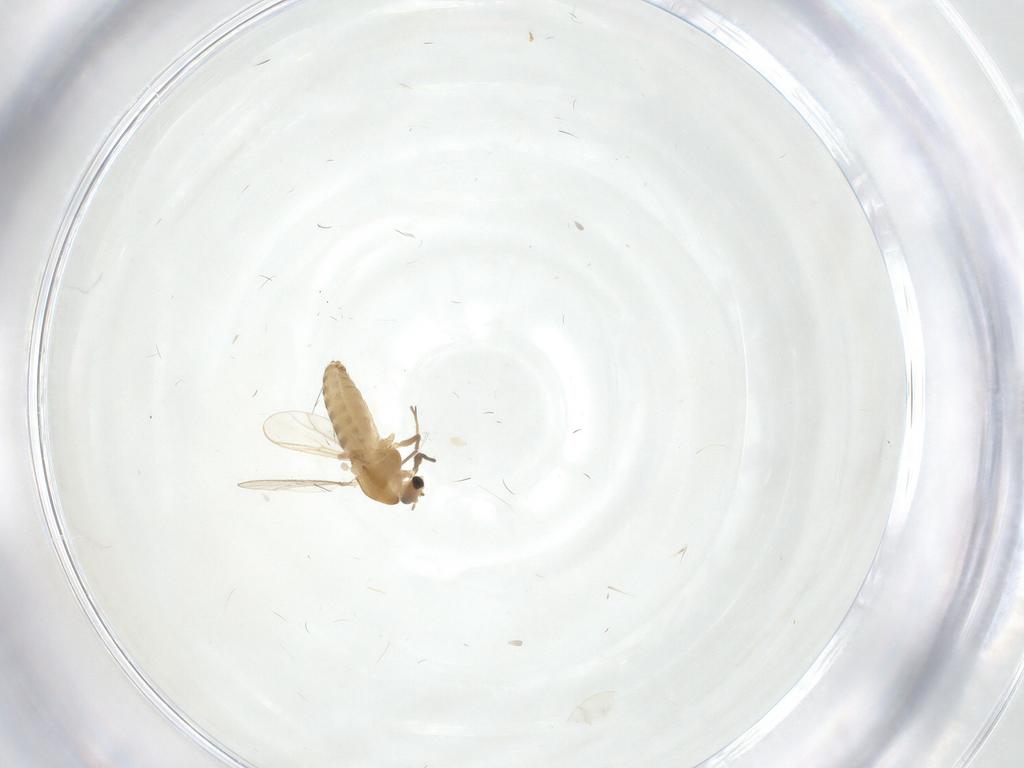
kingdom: Animalia
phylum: Arthropoda
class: Insecta
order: Diptera
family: Chironomidae
